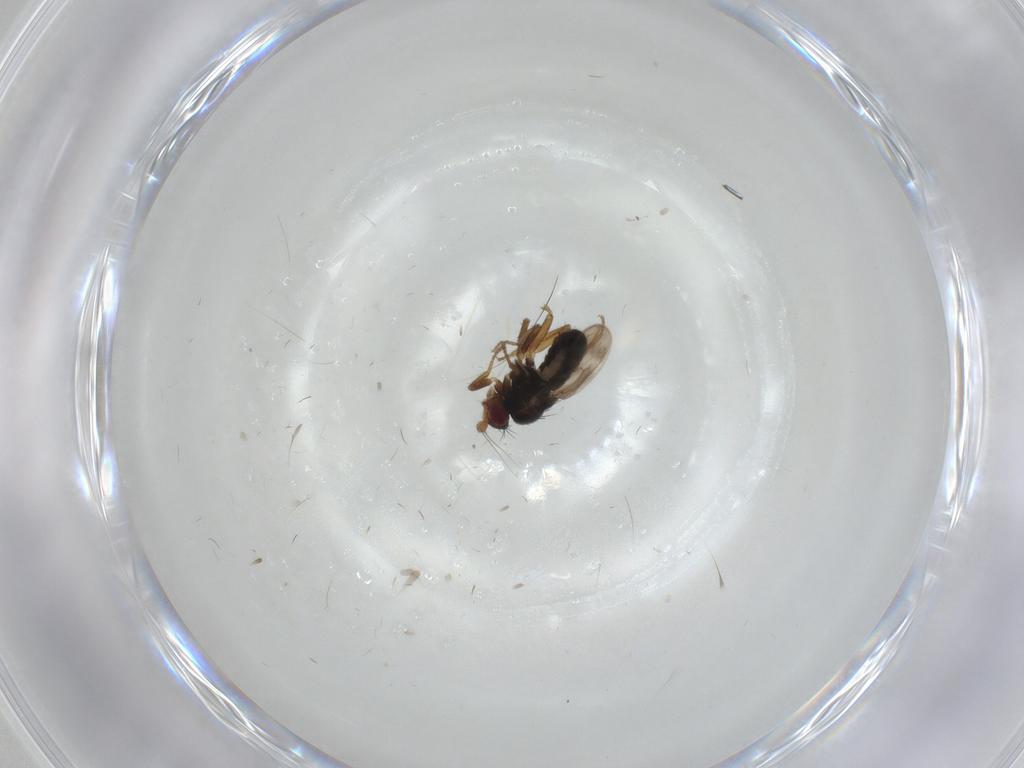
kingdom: Animalia
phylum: Arthropoda
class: Insecta
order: Diptera
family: Sphaeroceridae
